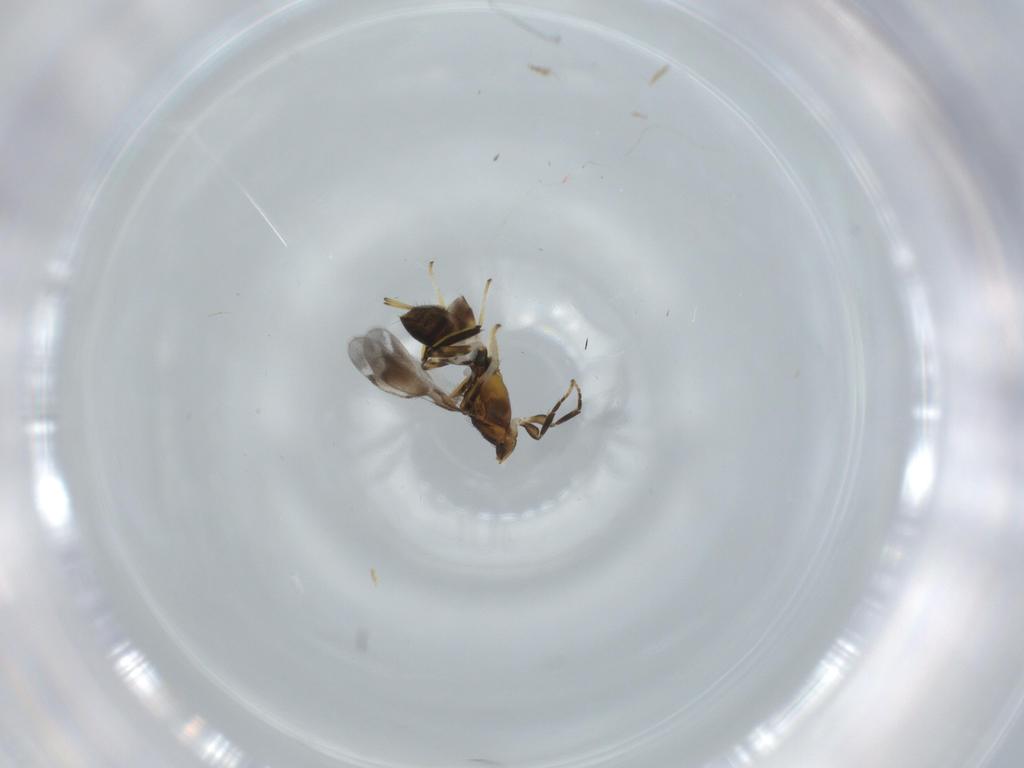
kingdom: Animalia
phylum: Arthropoda
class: Insecta
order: Hymenoptera
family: Eupelmidae
